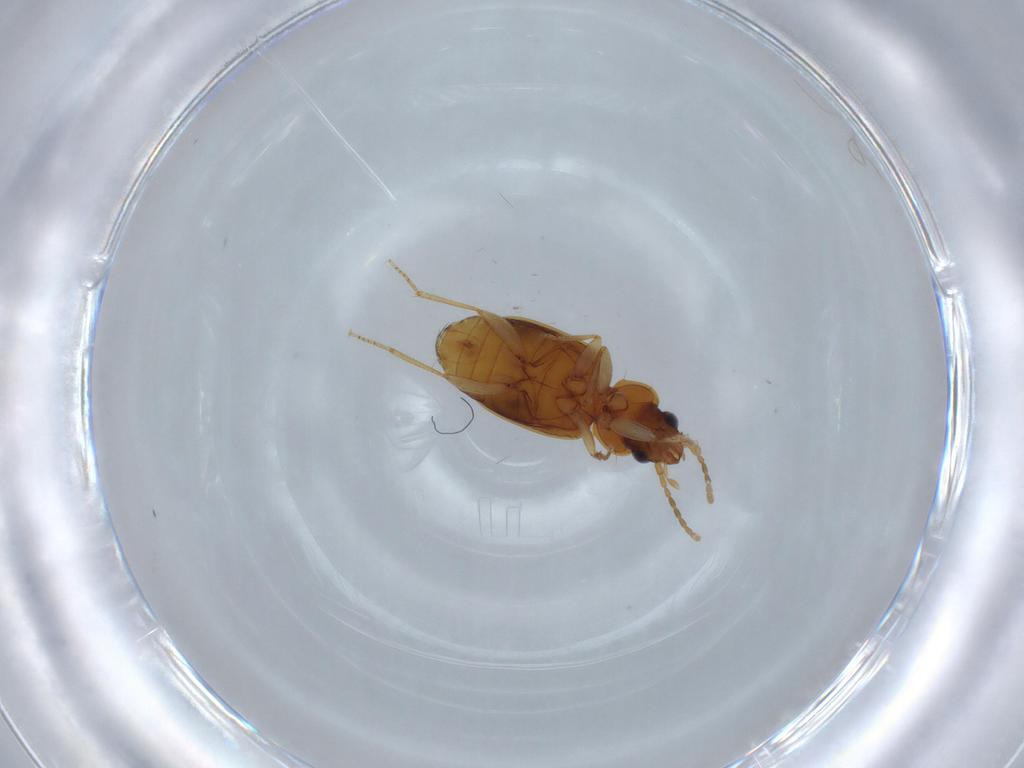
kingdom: Animalia
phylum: Arthropoda
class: Insecta
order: Coleoptera
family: Carabidae
